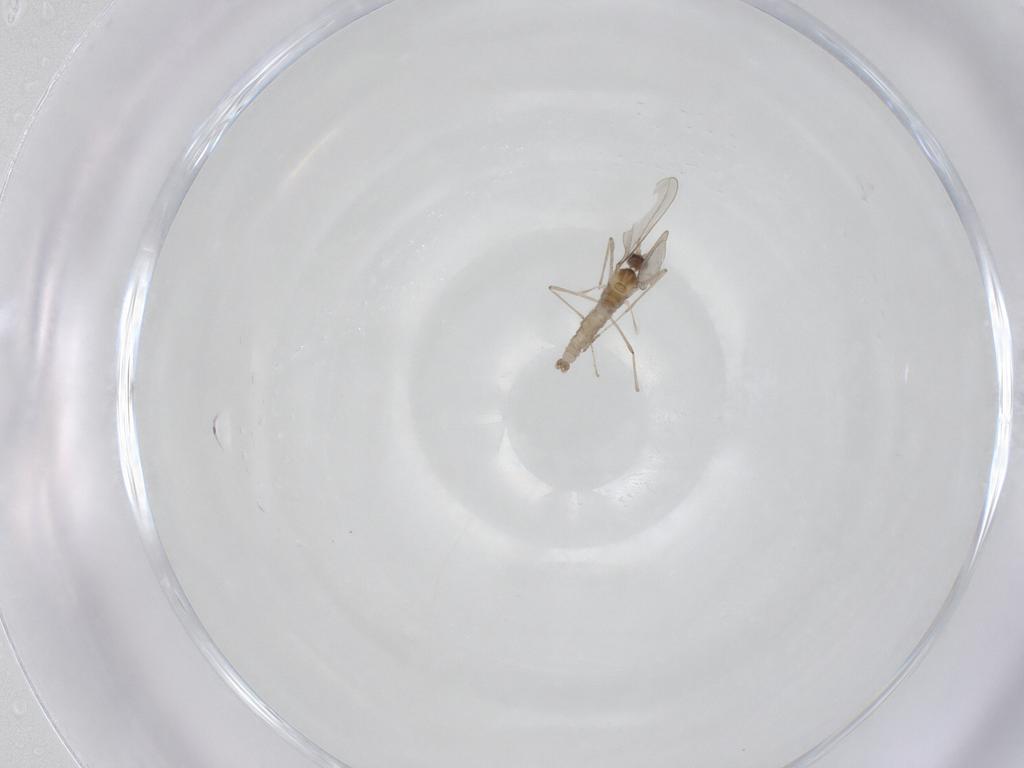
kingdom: Animalia
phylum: Arthropoda
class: Insecta
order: Diptera
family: Cecidomyiidae
